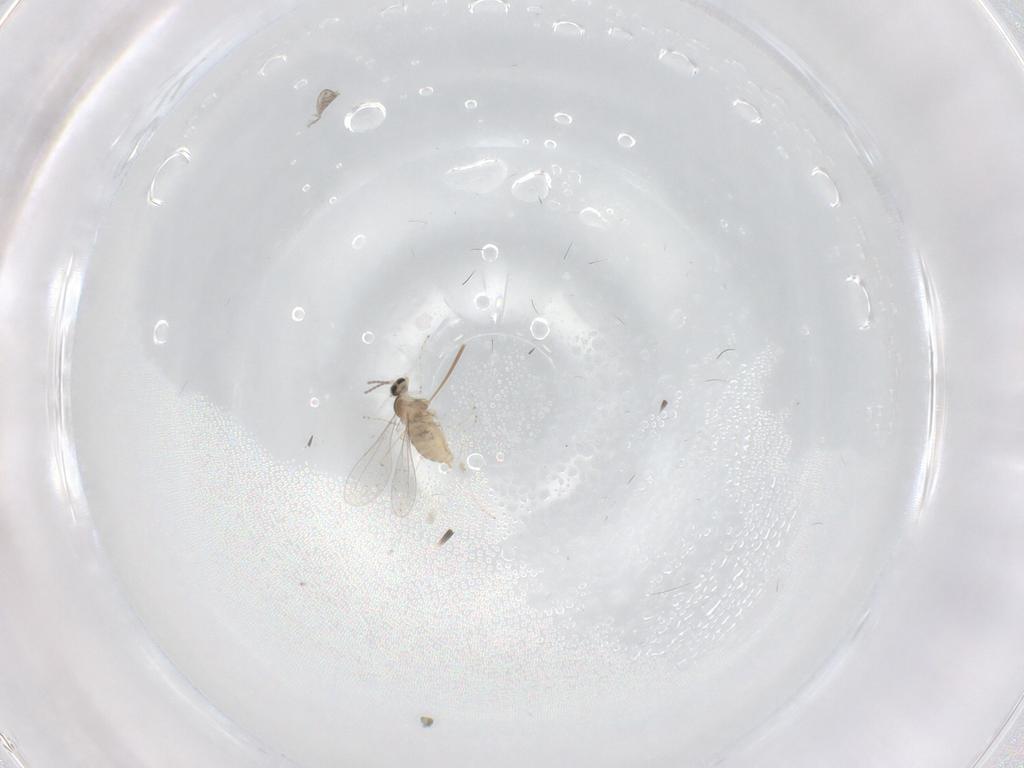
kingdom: Animalia
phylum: Arthropoda
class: Insecta
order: Diptera
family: Cecidomyiidae
